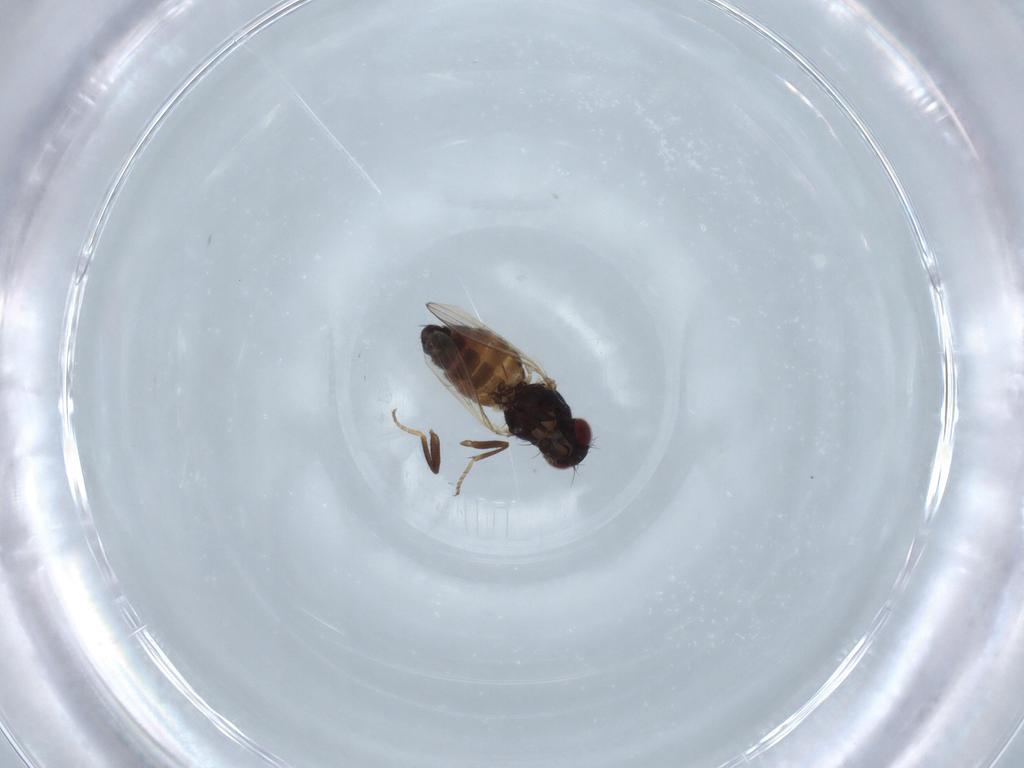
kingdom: Animalia
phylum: Arthropoda
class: Insecta
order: Diptera
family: Carnidae
